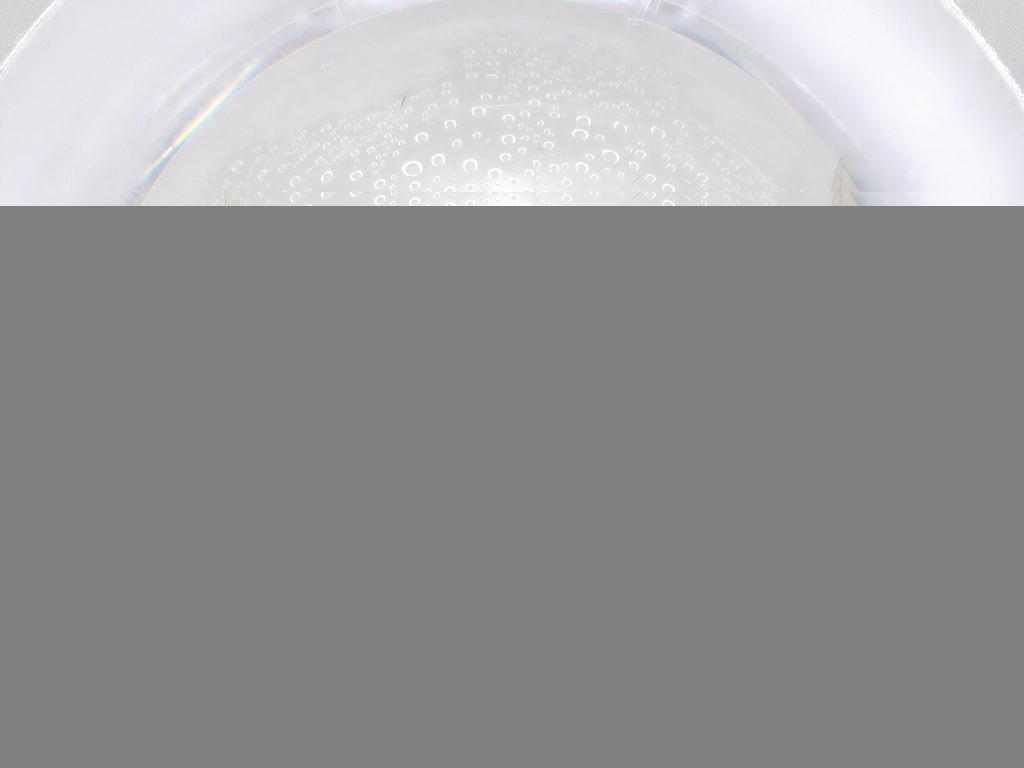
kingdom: Animalia
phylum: Arthropoda
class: Insecta
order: Diptera
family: Cecidomyiidae
